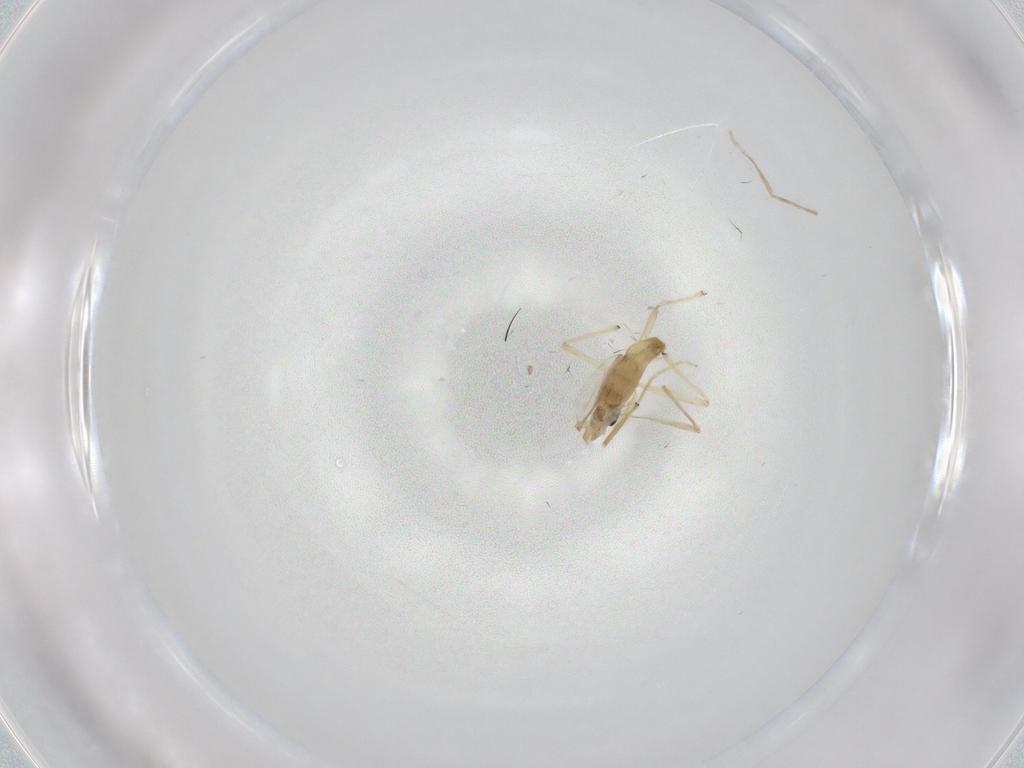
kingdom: Animalia
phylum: Arthropoda
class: Insecta
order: Diptera
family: Chironomidae
